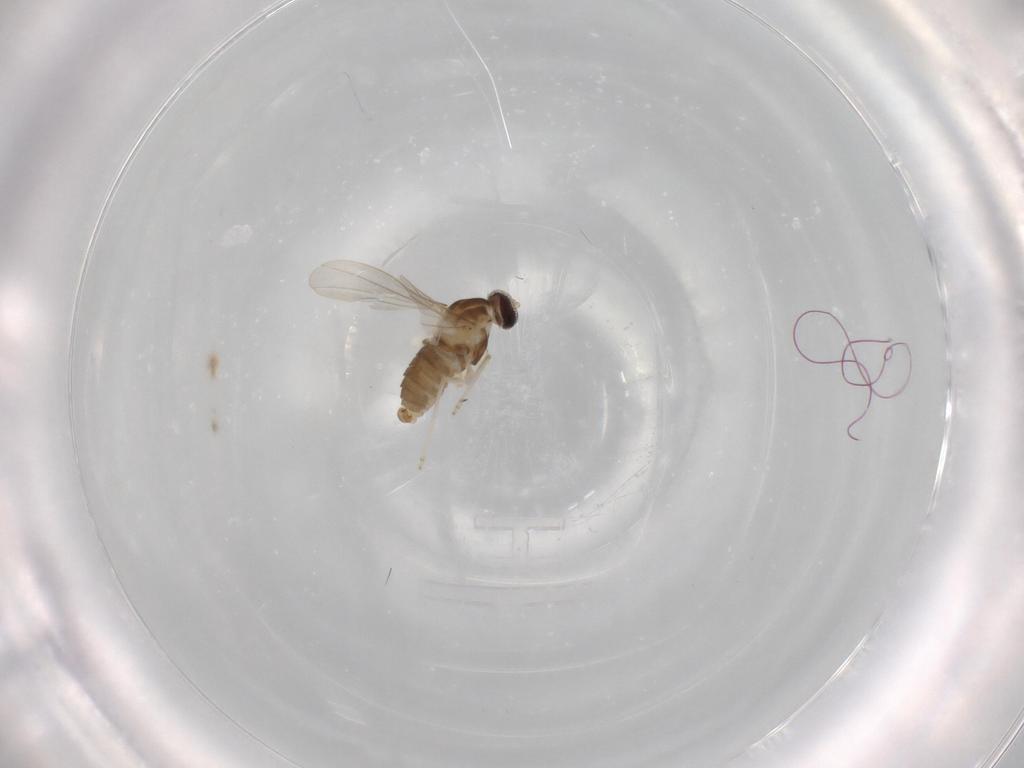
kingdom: Animalia
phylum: Arthropoda
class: Insecta
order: Diptera
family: Cecidomyiidae
